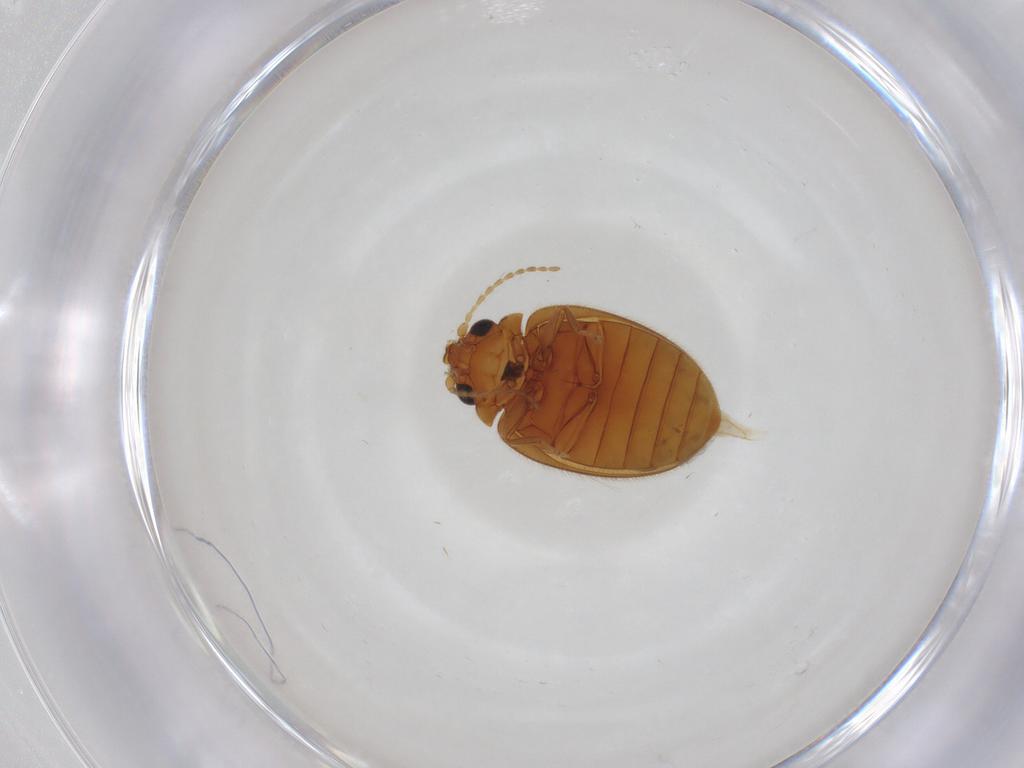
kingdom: Animalia
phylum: Arthropoda
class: Insecta
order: Coleoptera
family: Scirtidae
